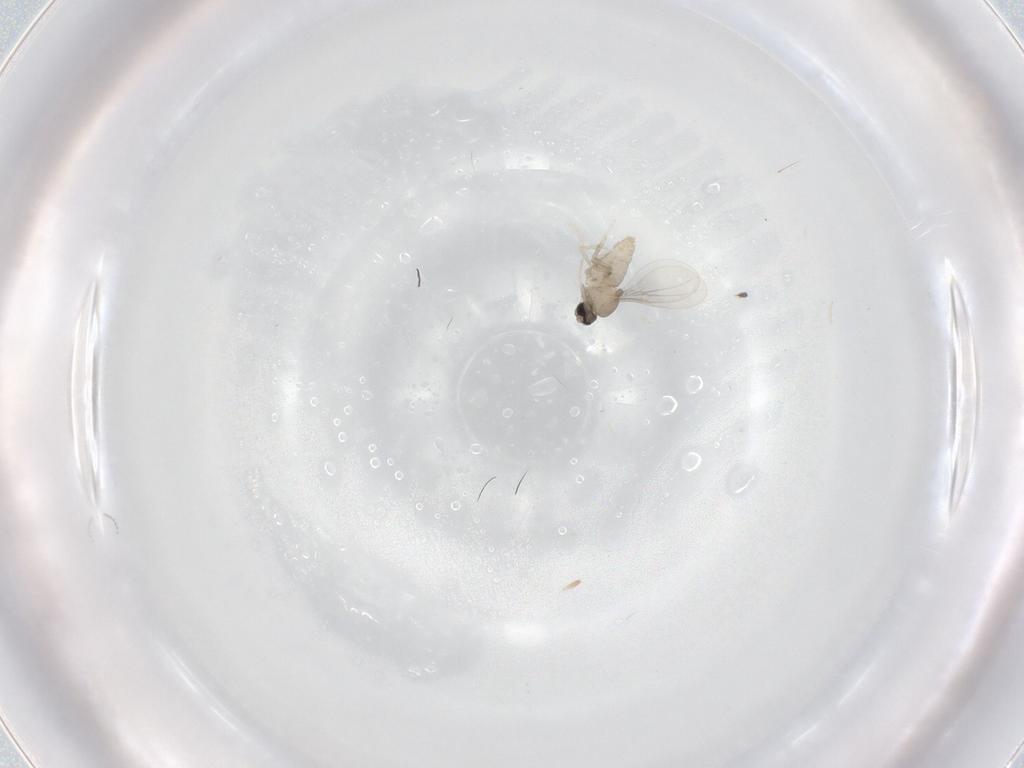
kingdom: Animalia
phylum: Arthropoda
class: Insecta
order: Diptera
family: Cecidomyiidae
